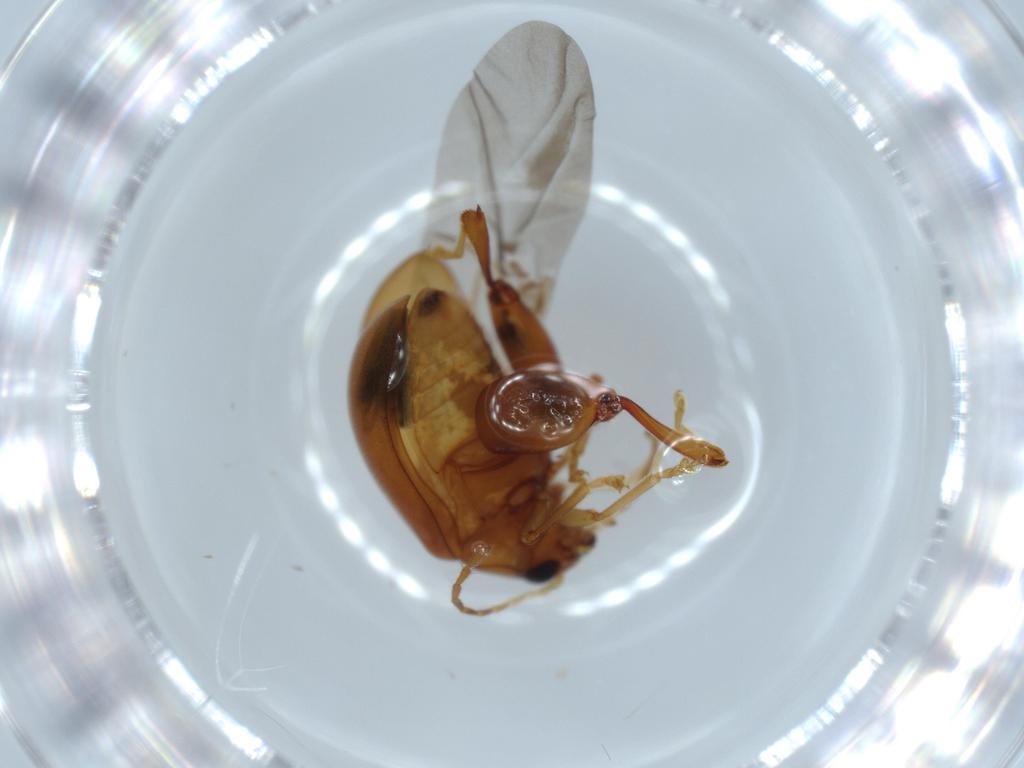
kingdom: Animalia
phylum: Arthropoda
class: Insecta
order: Coleoptera
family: Chrysomelidae
